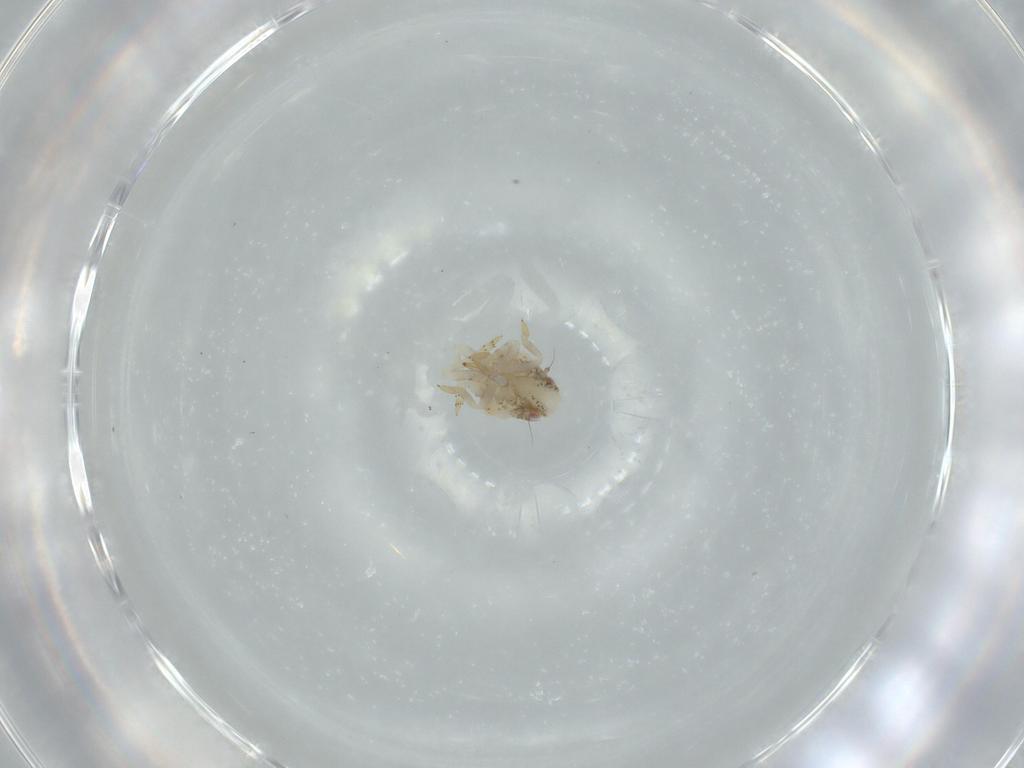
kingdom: Animalia
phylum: Arthropoda
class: Insecta
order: Hemiptera
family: Acanaloniidae
